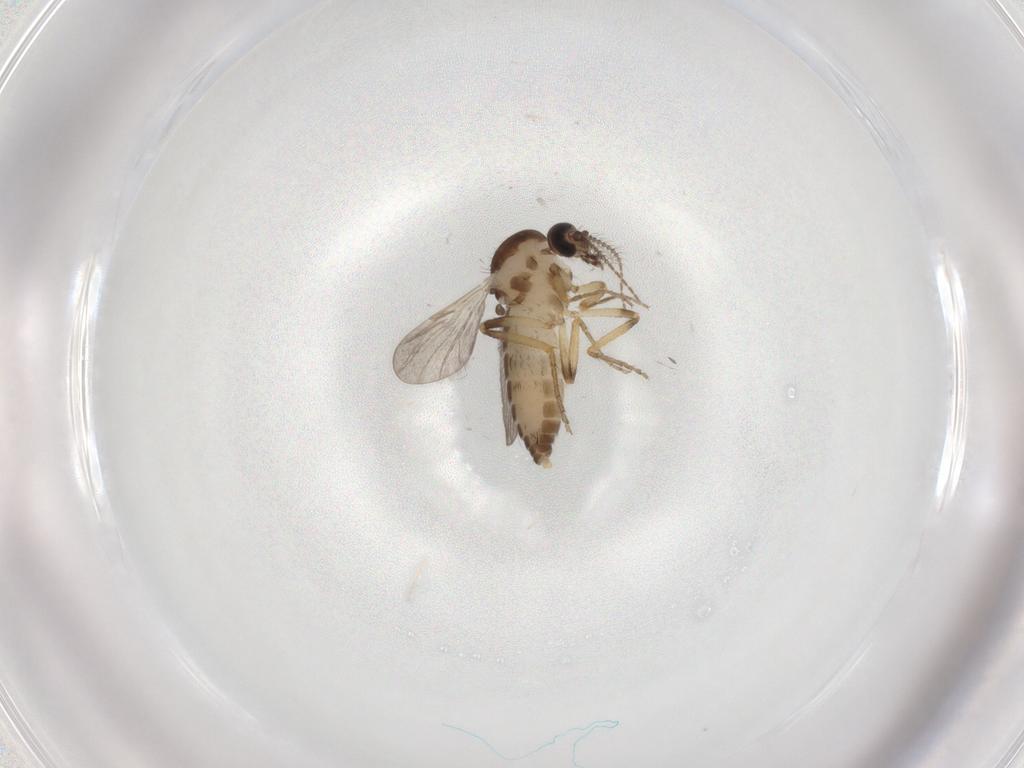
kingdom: Animalia
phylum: Arthropoda
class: Insecta
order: Diptera
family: Ceratopogonidae
